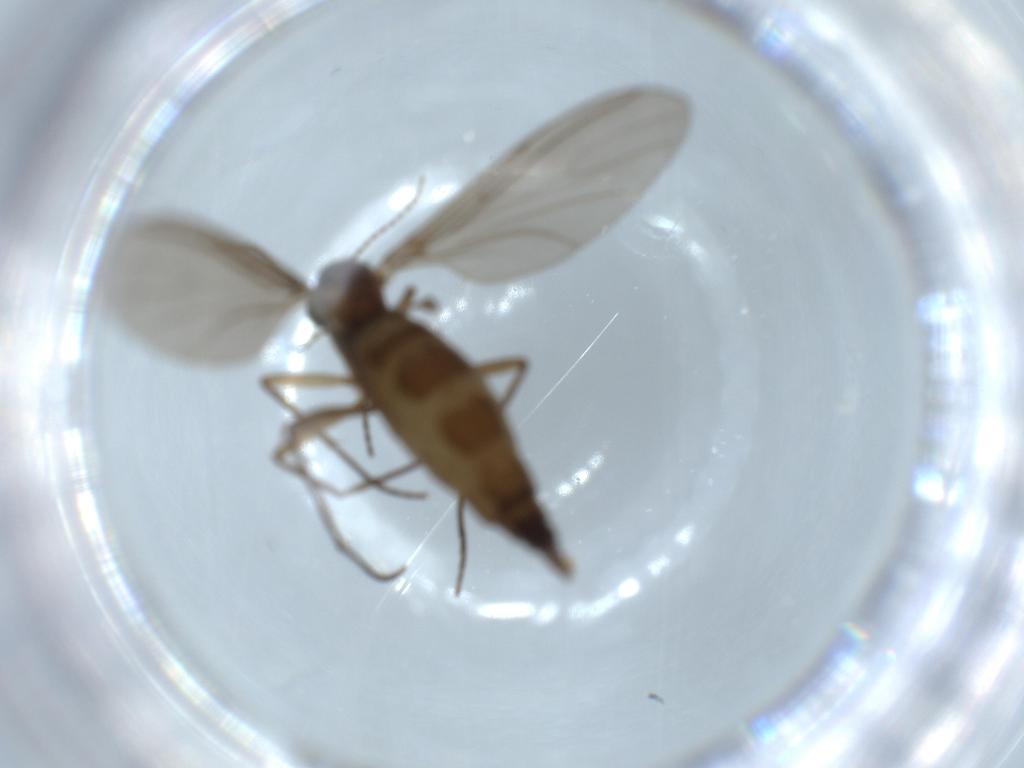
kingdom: Animalia
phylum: Arthropoda
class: Insecta
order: Diptera
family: Sciaridae
